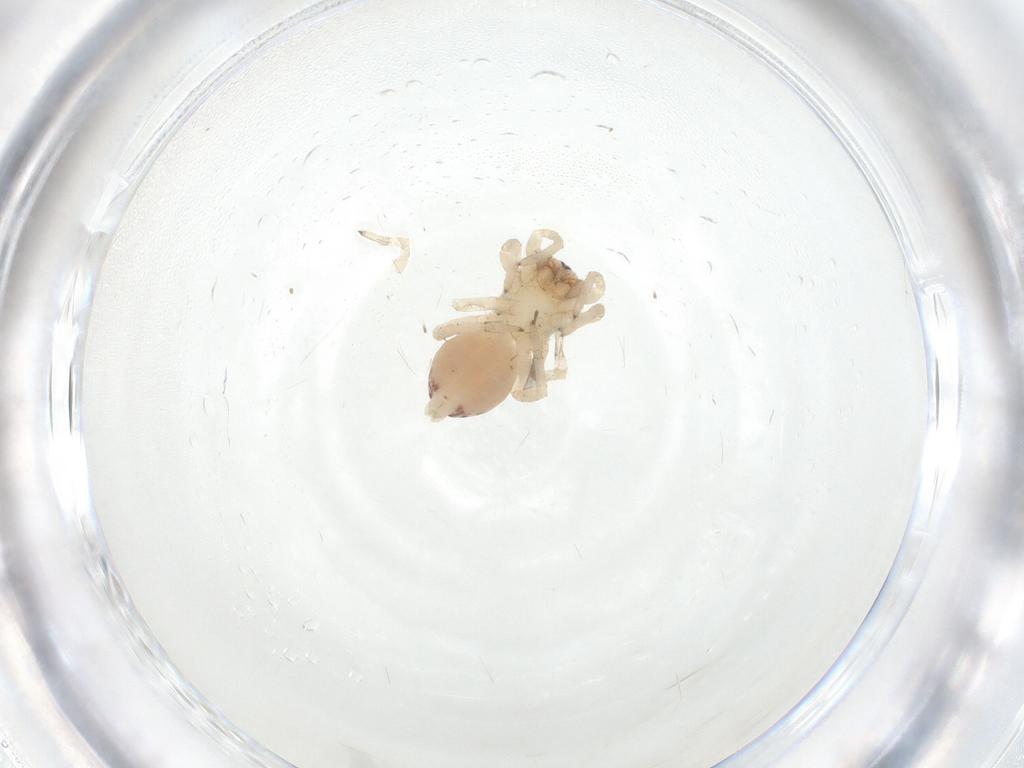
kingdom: Animalia
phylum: Arthropoda
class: Arachnida
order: Araneae
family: Clubionidae
